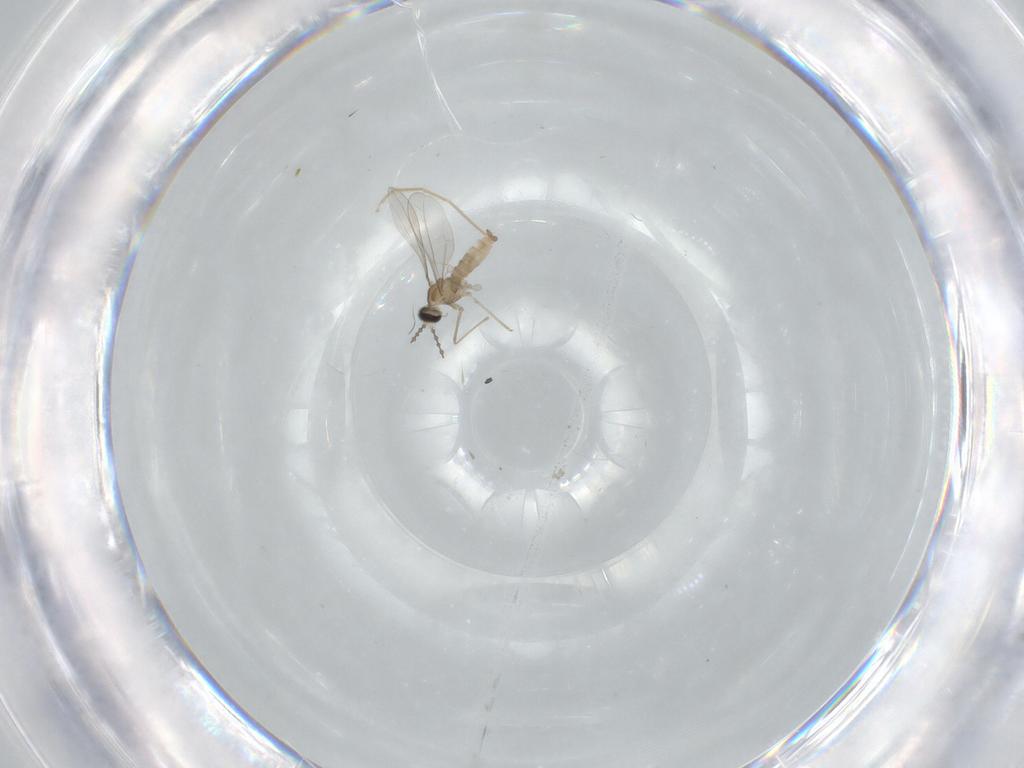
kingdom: Animalia
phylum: Arthropoda
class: Insecta
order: Diptera
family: Cecidomyiidae
